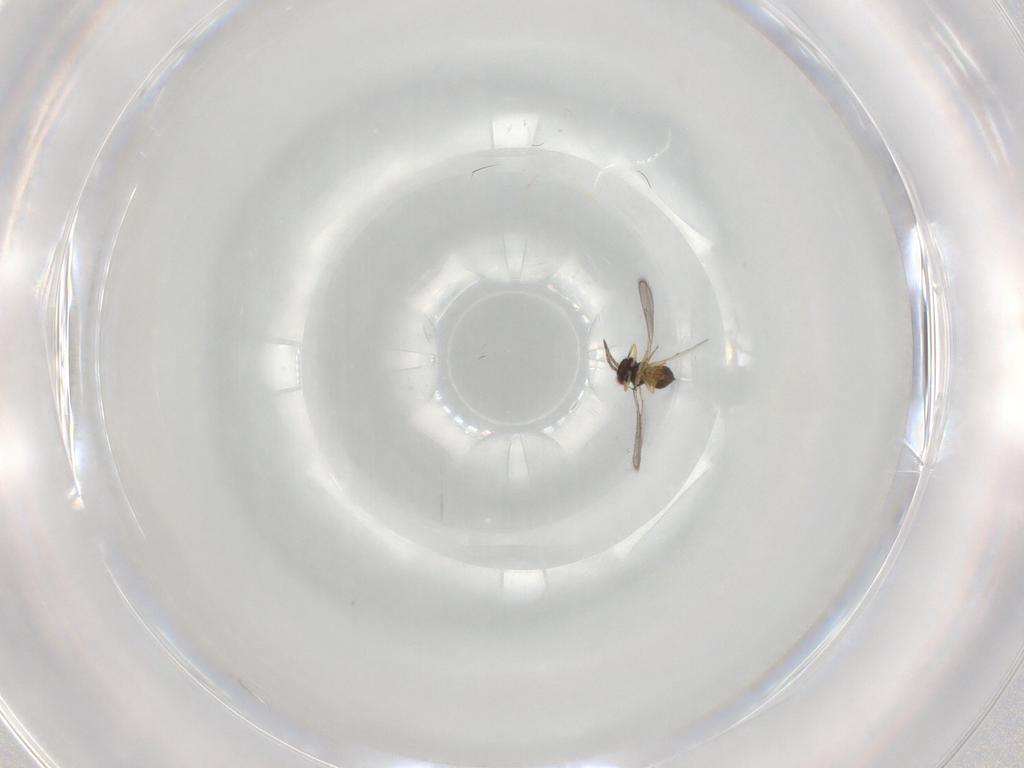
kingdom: Animalia
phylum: Arthropoda
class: Insecta
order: Hymenoptera
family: Eulophidae
